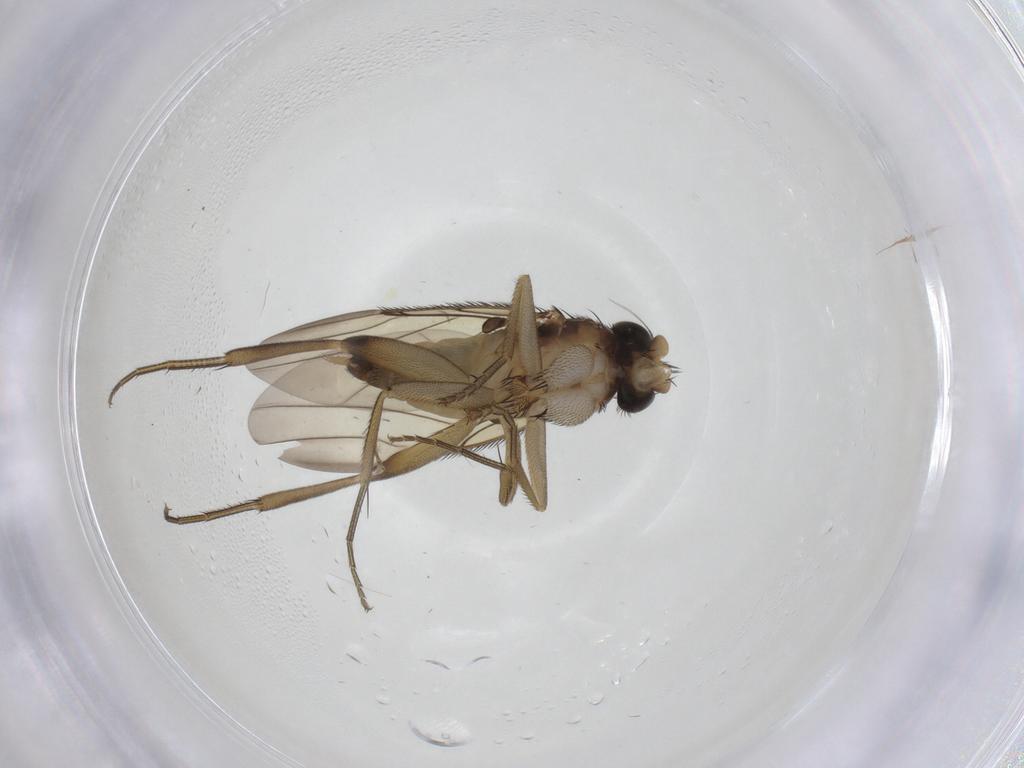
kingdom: Animalia
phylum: Arthropoda
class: Insecta
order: Diptera
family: Phoridae
